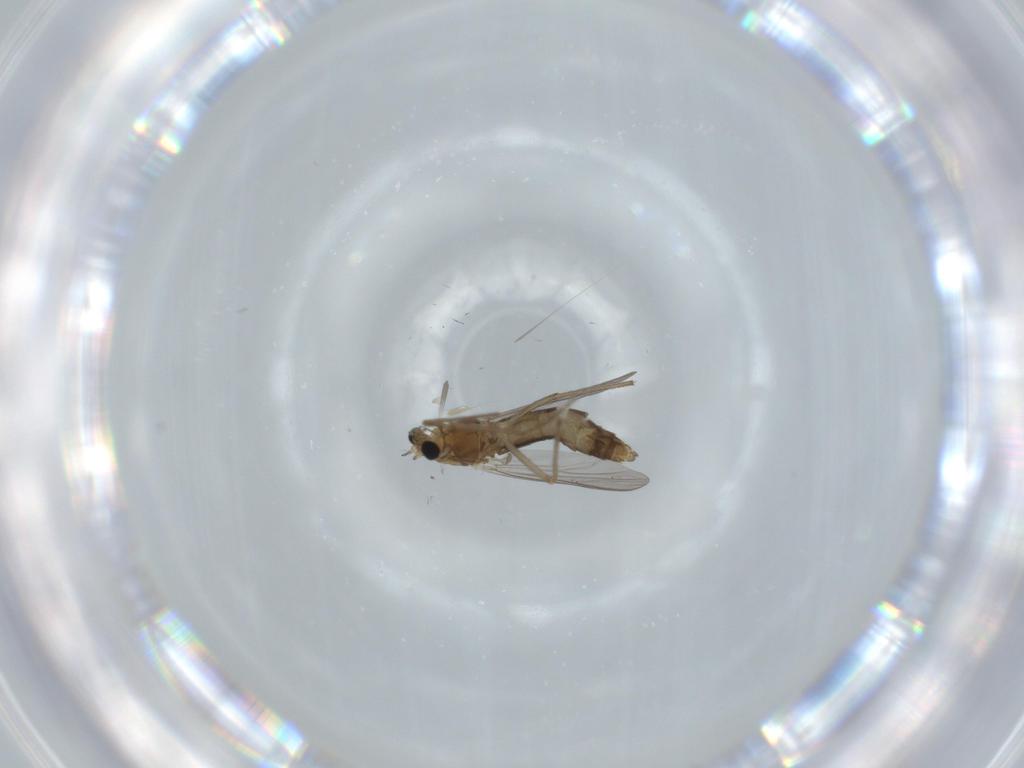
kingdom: Animalia
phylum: Arthropoda
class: Insecta
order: Diptera
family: Chironomidae
